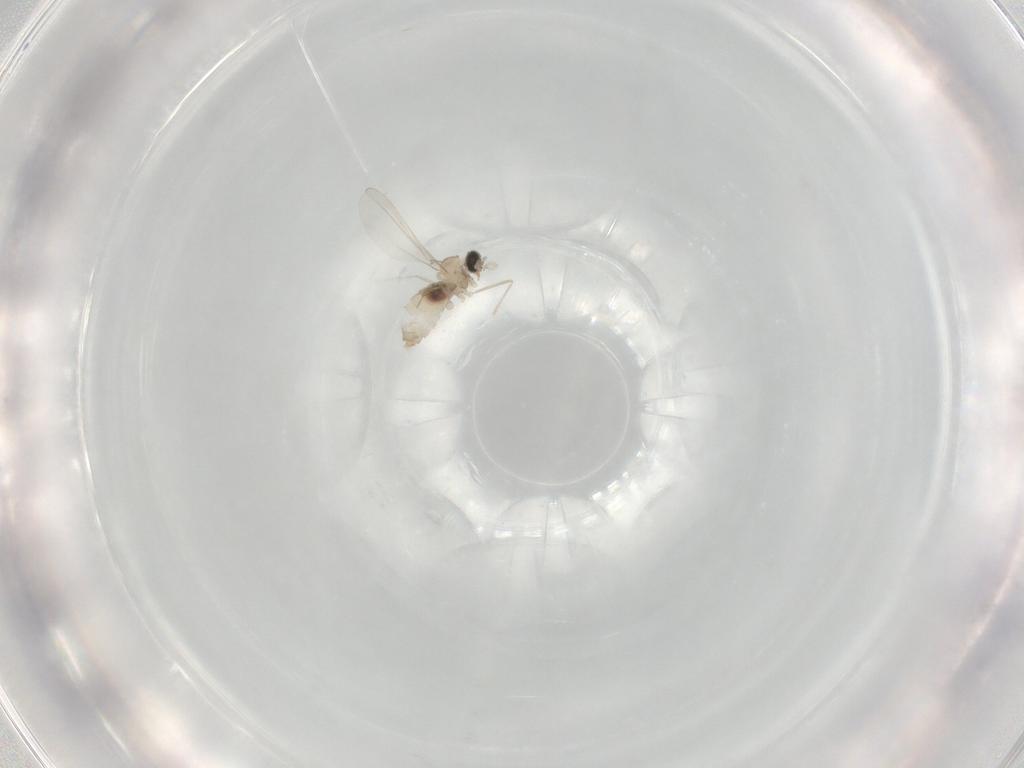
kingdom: Animalia
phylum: Arthropoda
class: Insecta
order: Diptera
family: Cecidomyiidae
